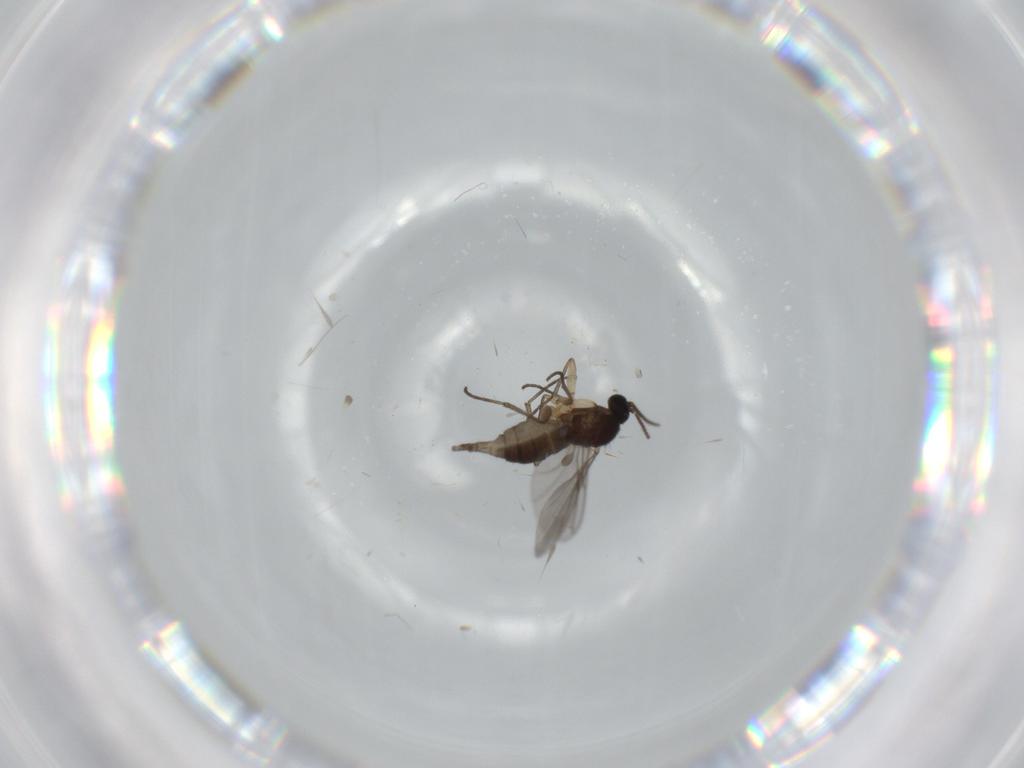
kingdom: Animalia
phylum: Arthropoda
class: Insecta
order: Diptera
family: Sciaridae
